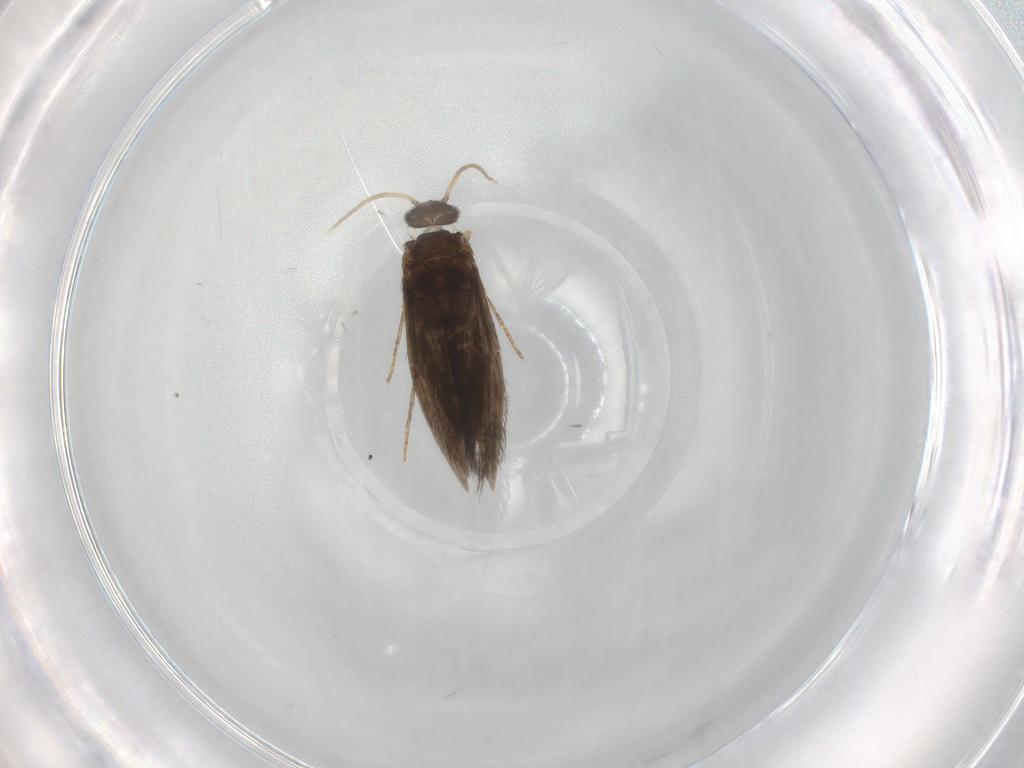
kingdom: Animalia
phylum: Arthropoda
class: Insecta
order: Trichoptera
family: Hydroptilidae
